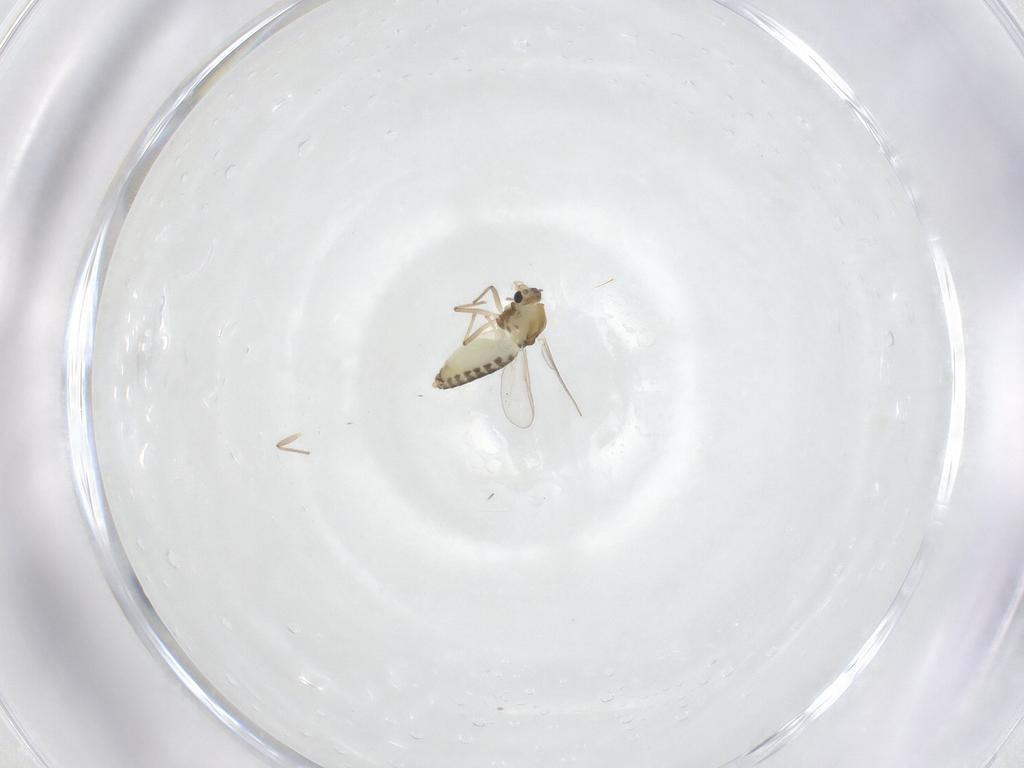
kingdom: Animalia
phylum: Arthropoda
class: Insecta
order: Diptera
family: Chironomidae
